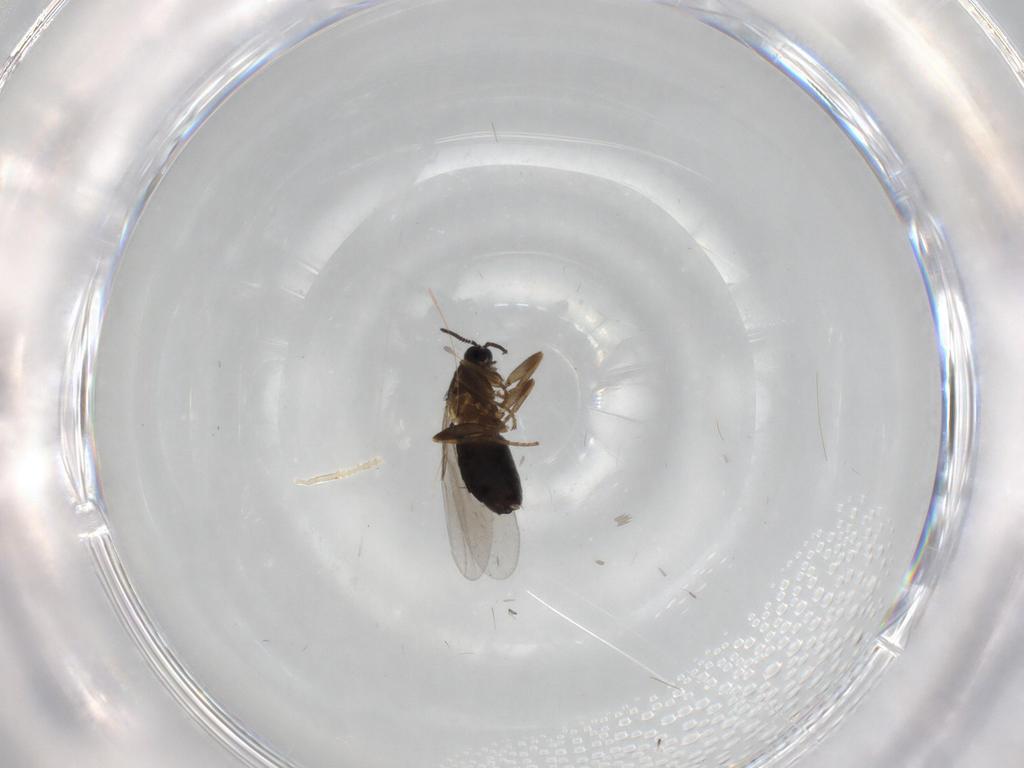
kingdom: Animalia
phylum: Arthropoda
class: Insecta
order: Diptera
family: Scatopsidae
